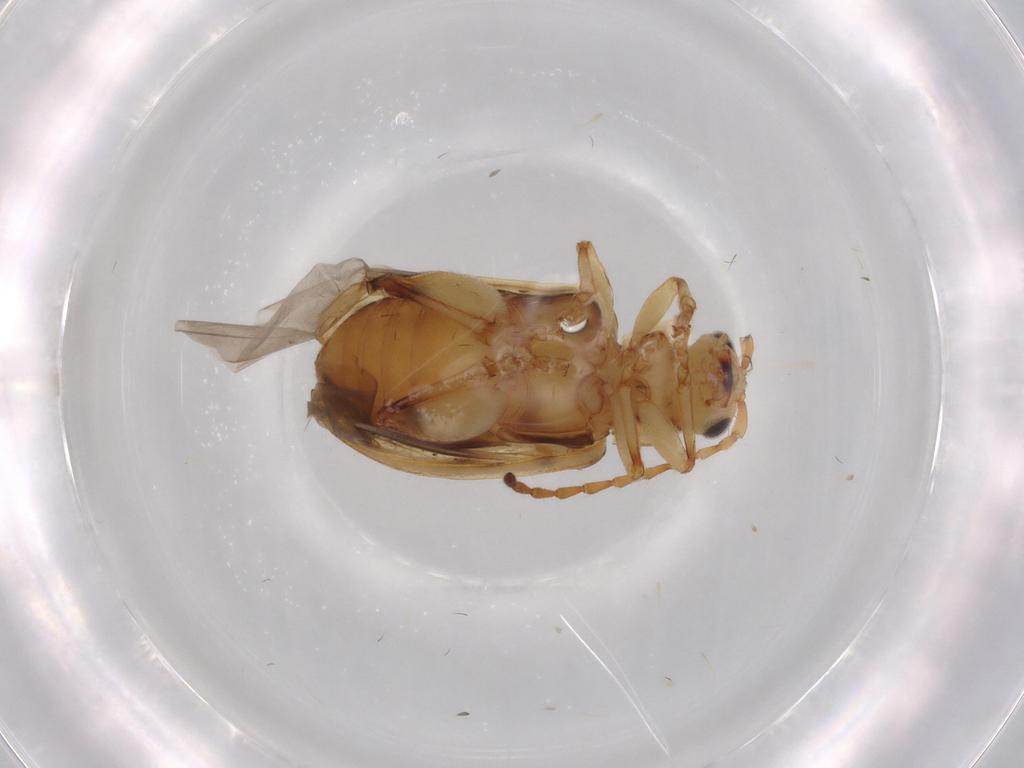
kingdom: Animalia
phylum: Arthropoda
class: Insecta
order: Coleoptera
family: Chrysomelidae
